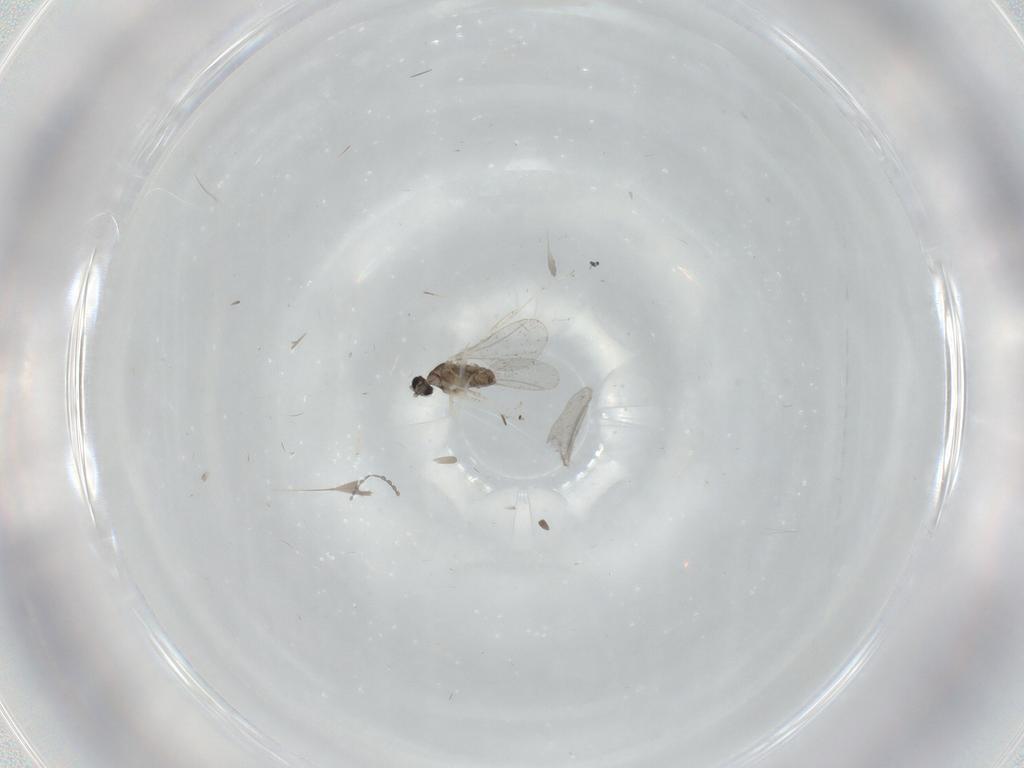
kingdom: Animalia
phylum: Arthropoda
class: Insecta
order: Diptera
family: Cecidomyiidae
